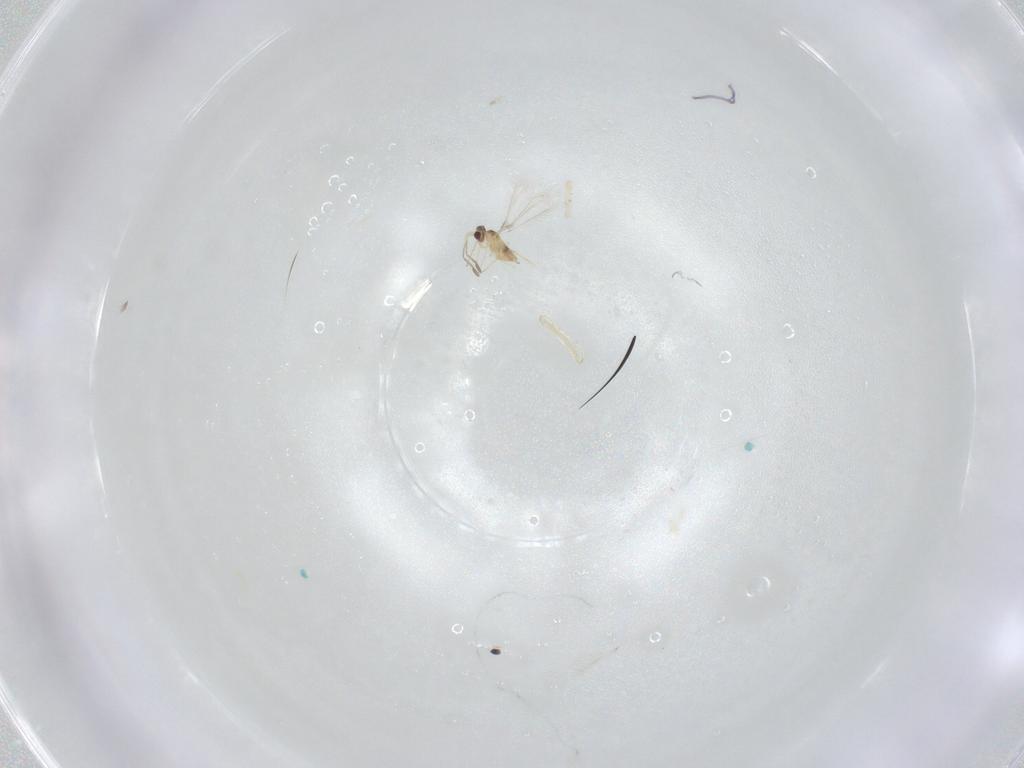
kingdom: Animalia
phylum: Arthropoda
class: Insecta
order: Hymenoptera
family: Mymaridae
